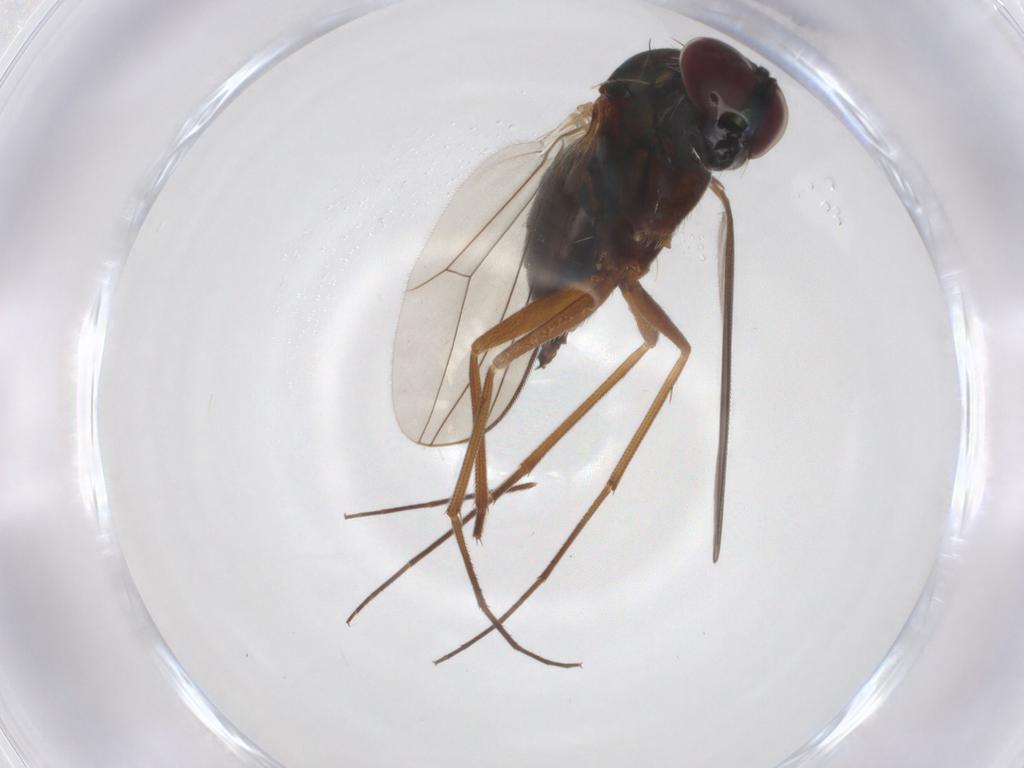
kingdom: Animalia
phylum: Arthropoda
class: Insecta
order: Diptera
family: Dolichopodidae
